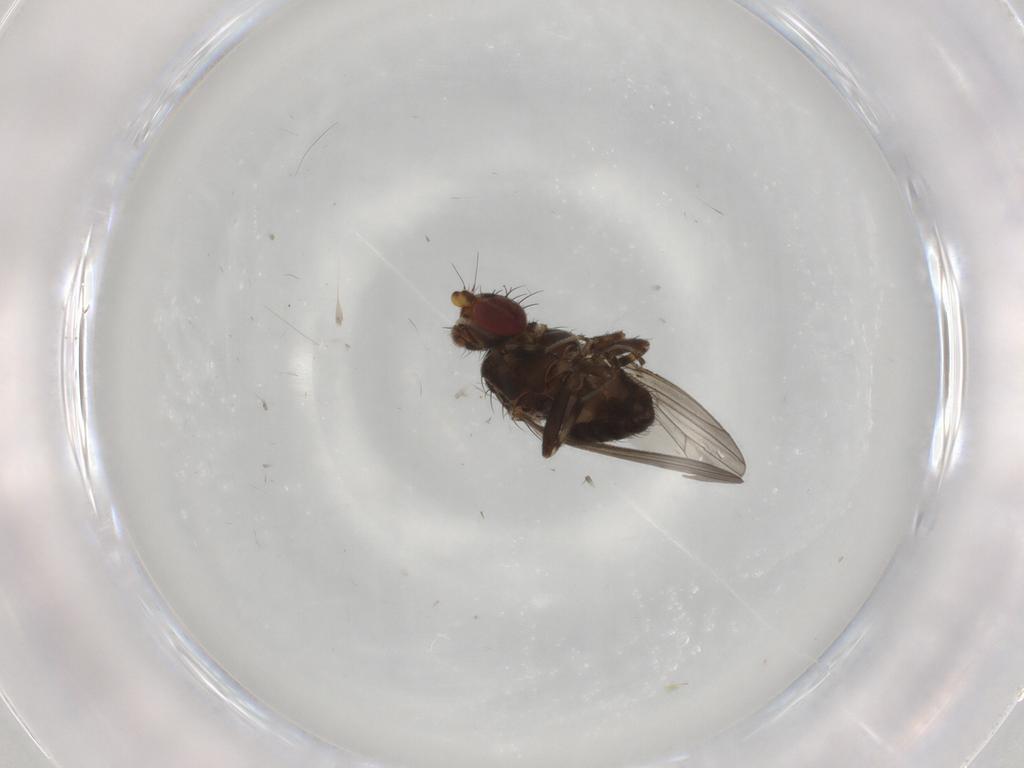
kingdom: Animalia
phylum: Arthropoda
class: Insecta
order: Diptera
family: Heleomyzidae
